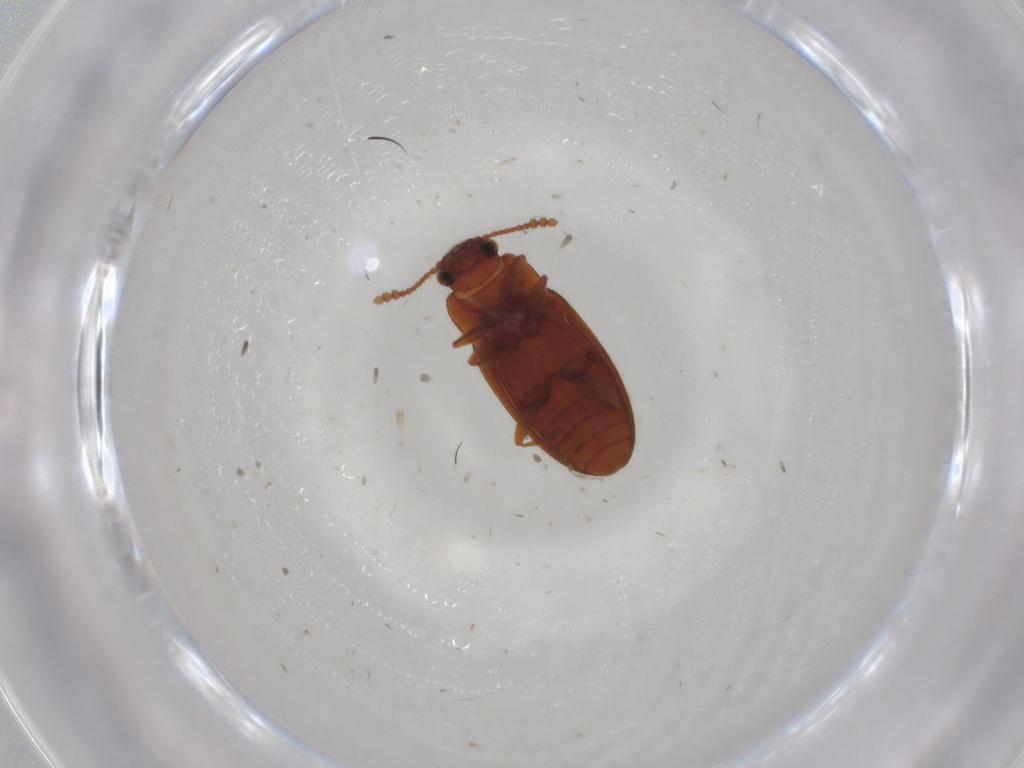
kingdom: Animalia
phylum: Arthropoda
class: Insecta
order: Coleoptera
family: Erotylidae
